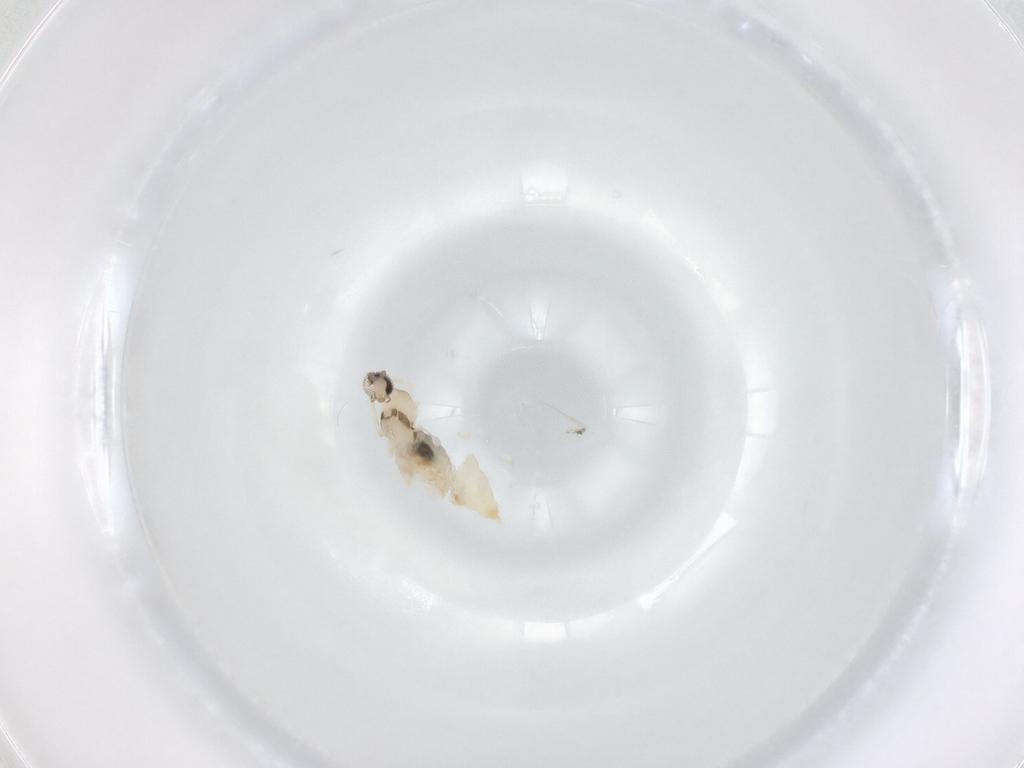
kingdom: Animalia
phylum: Arthropoda
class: Insecta
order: Diptera
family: Cecidomyiidae
